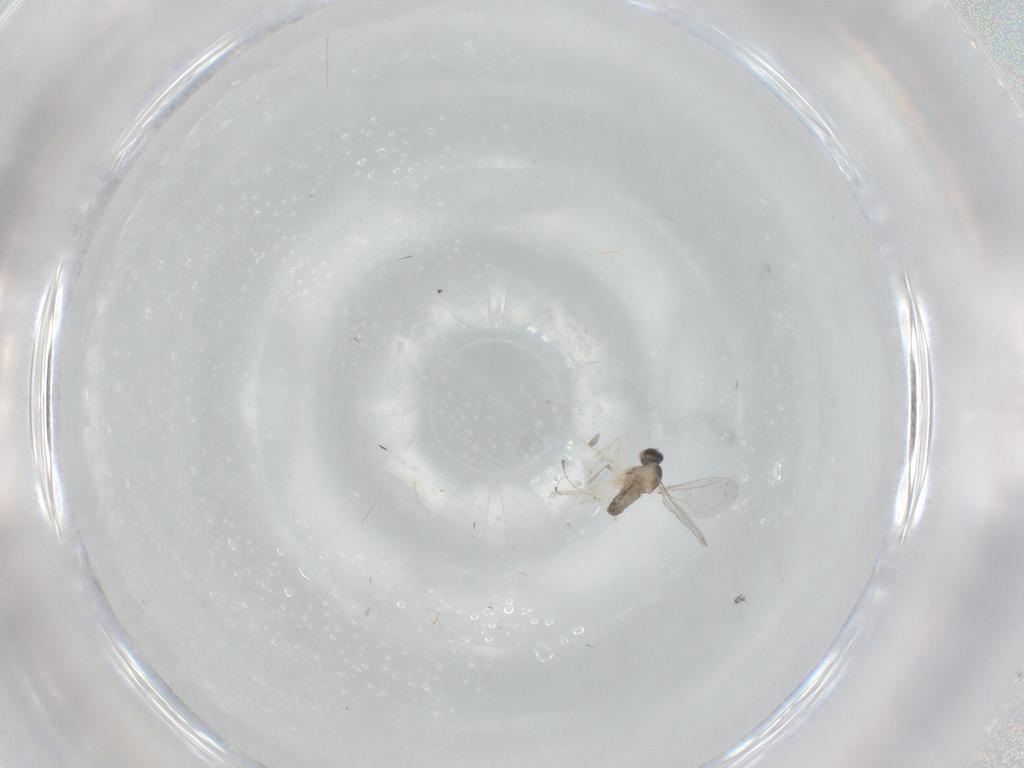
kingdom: Animalia
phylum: Arthropoda
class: Insecta
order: Diptera
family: Cecidomyiidae
